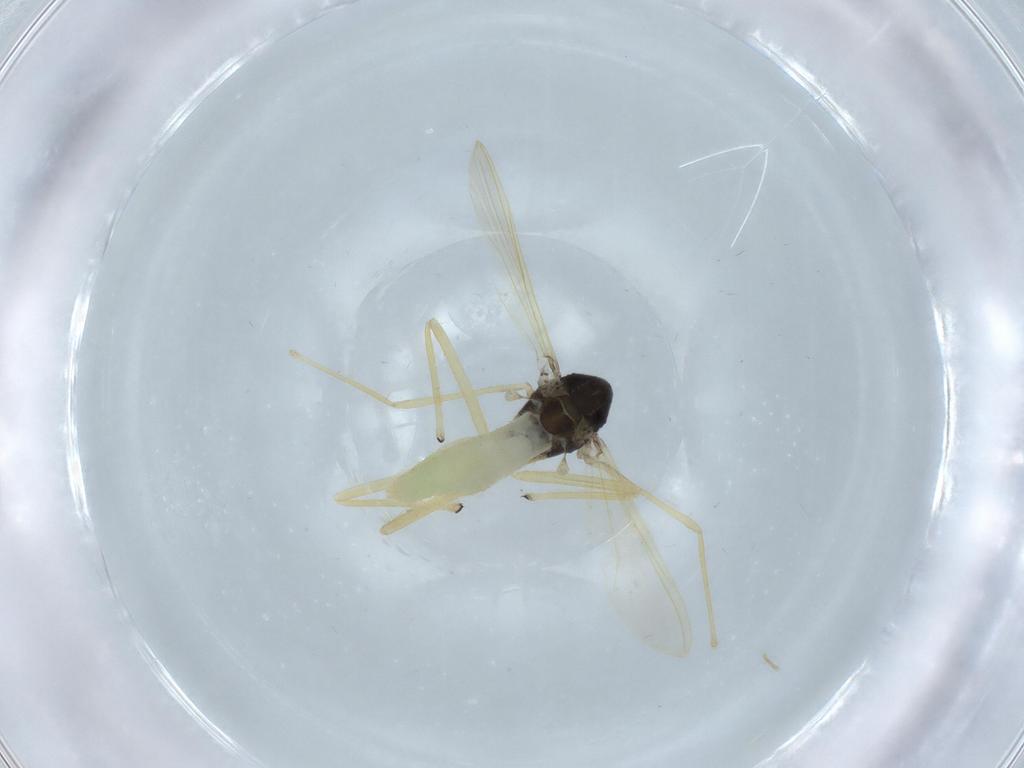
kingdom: Animalia
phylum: Arthropoda
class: Insecta
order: Diptera
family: Chironomidae
